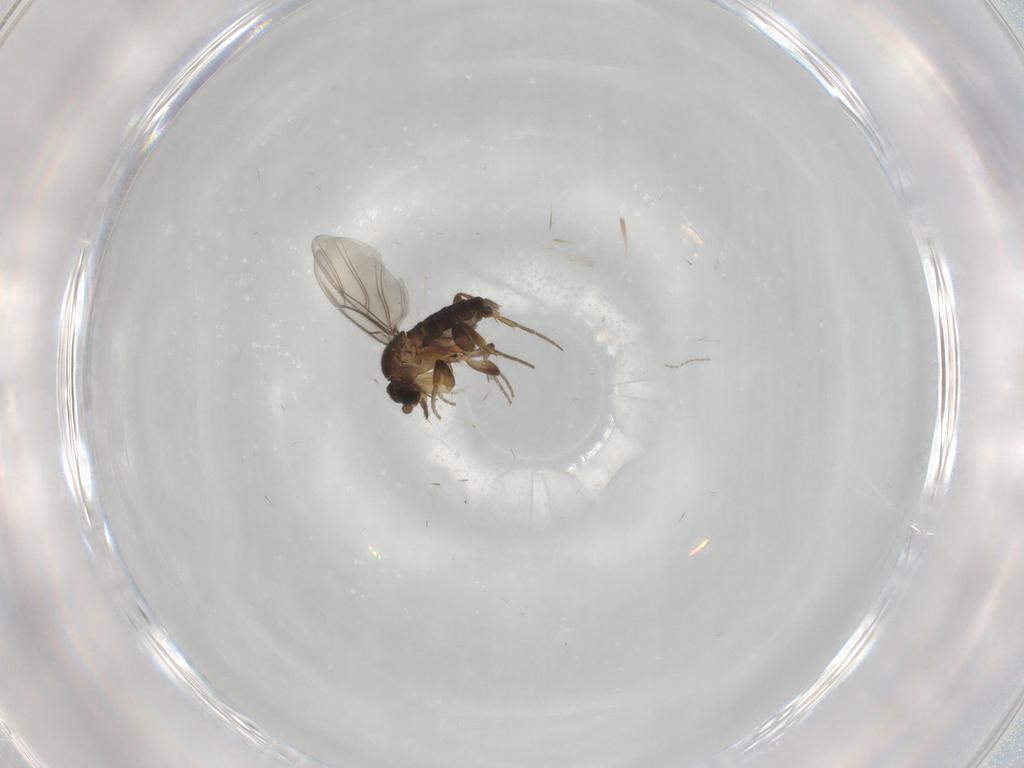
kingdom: Animalia
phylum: Arthropoda
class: Insecta
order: Diptera
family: Phoridae
